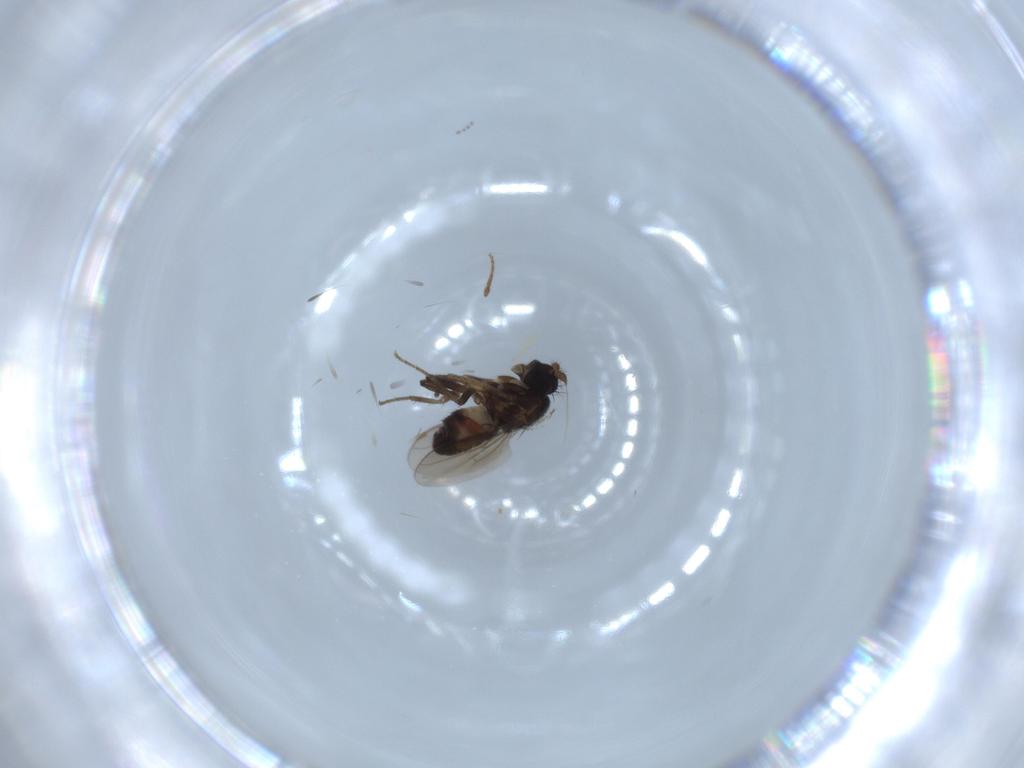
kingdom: Animalia
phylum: Arthropoda
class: Insecta
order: Diptera
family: Sphaeroceridae
